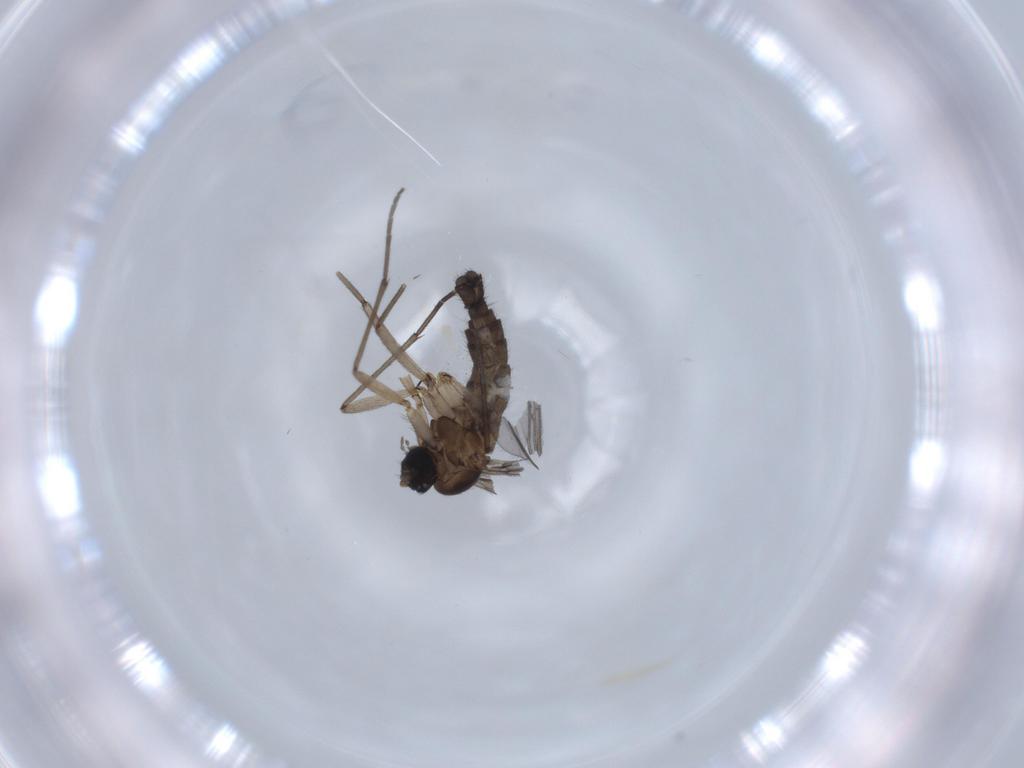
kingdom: Animalia
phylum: Arthropoda
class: Insecta
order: Diptera
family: Sciaridae
